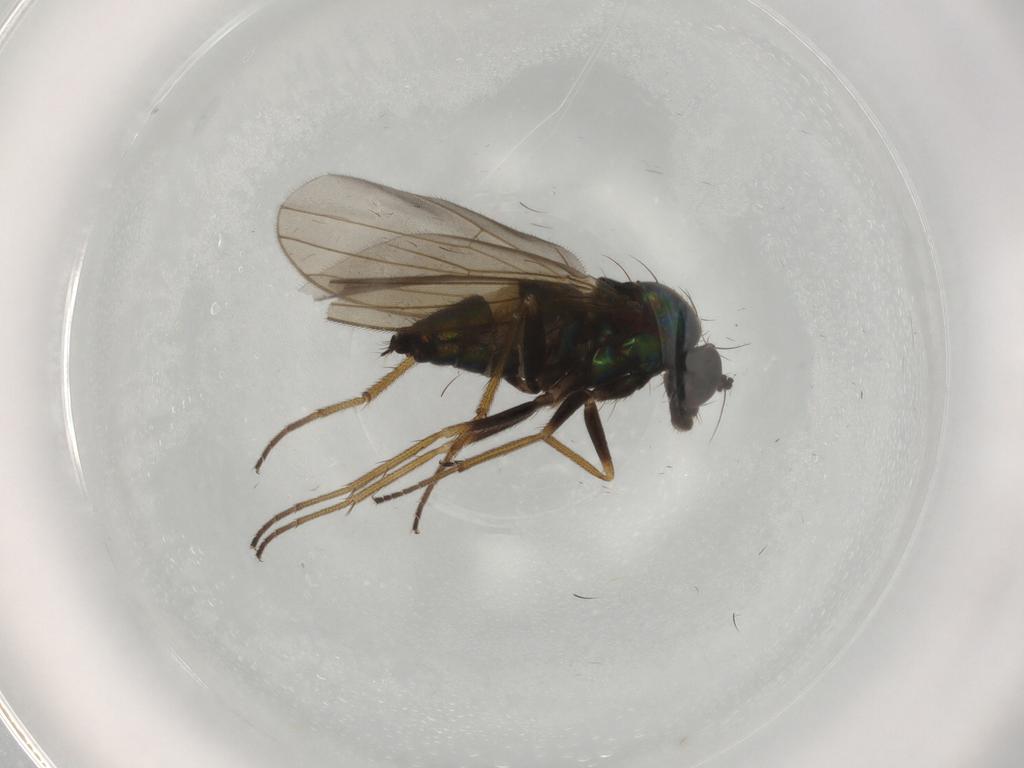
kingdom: Animalia
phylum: Arthropoda
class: Insecta
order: Diptera
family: Dolichopodidae
